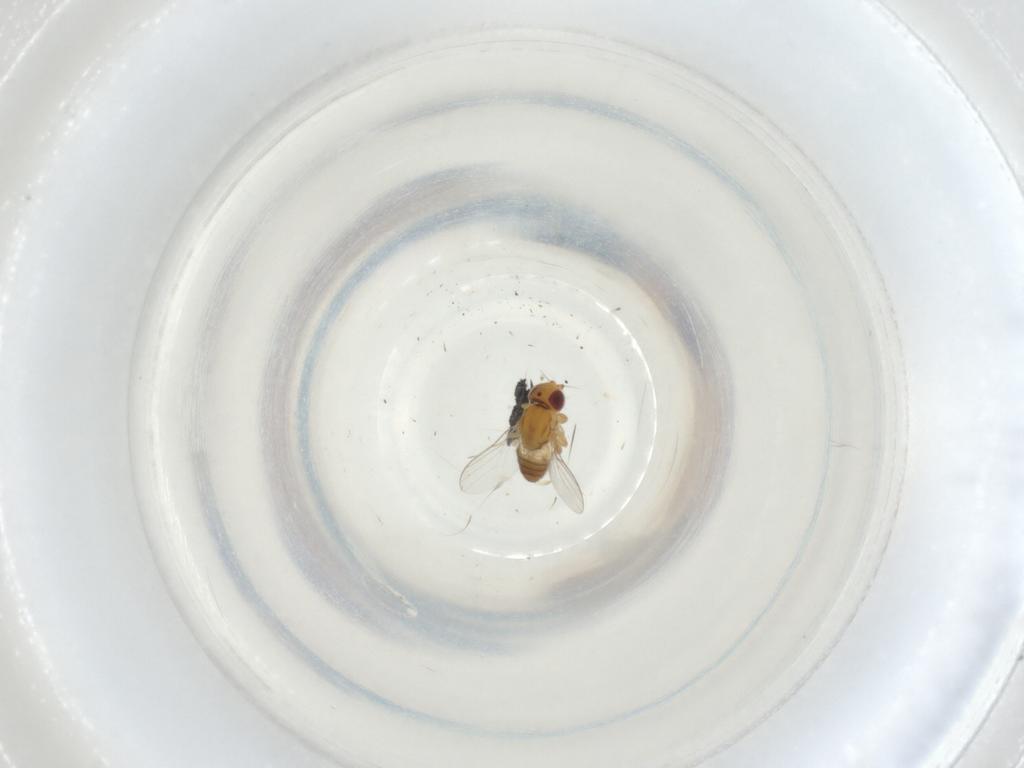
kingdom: Animalia
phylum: Arthropoda
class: Insecta
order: Diptera
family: Chloropidae
